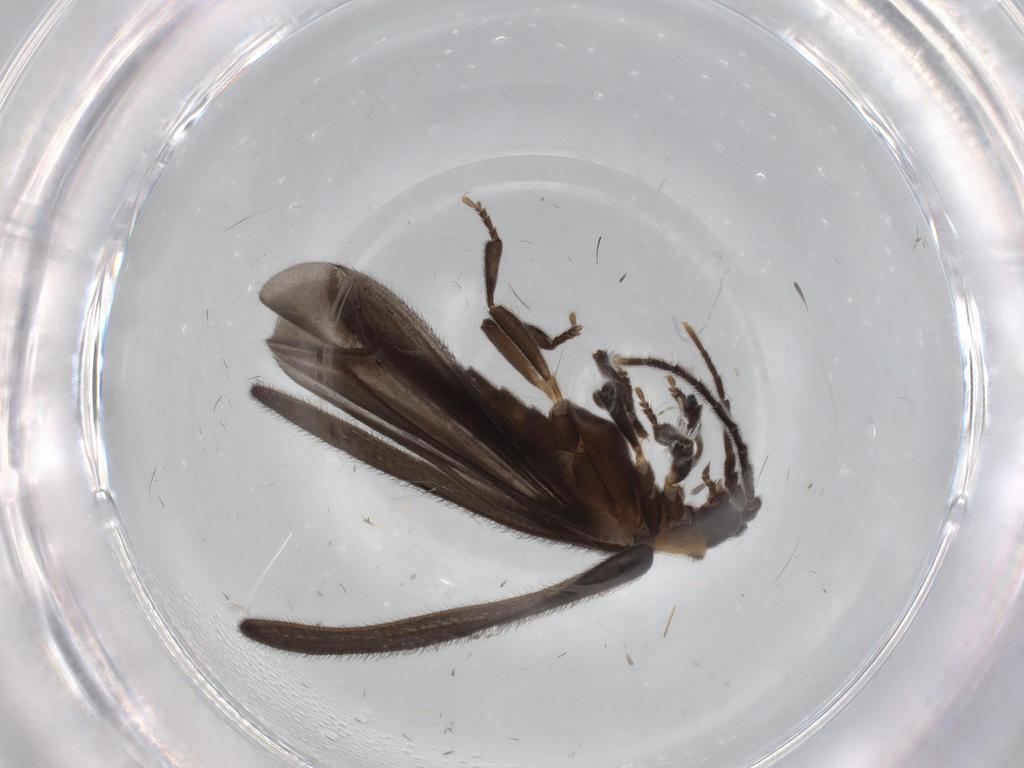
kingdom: Animalia
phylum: Arthropoda
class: Insecta
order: Coleoptera
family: Lycidae
